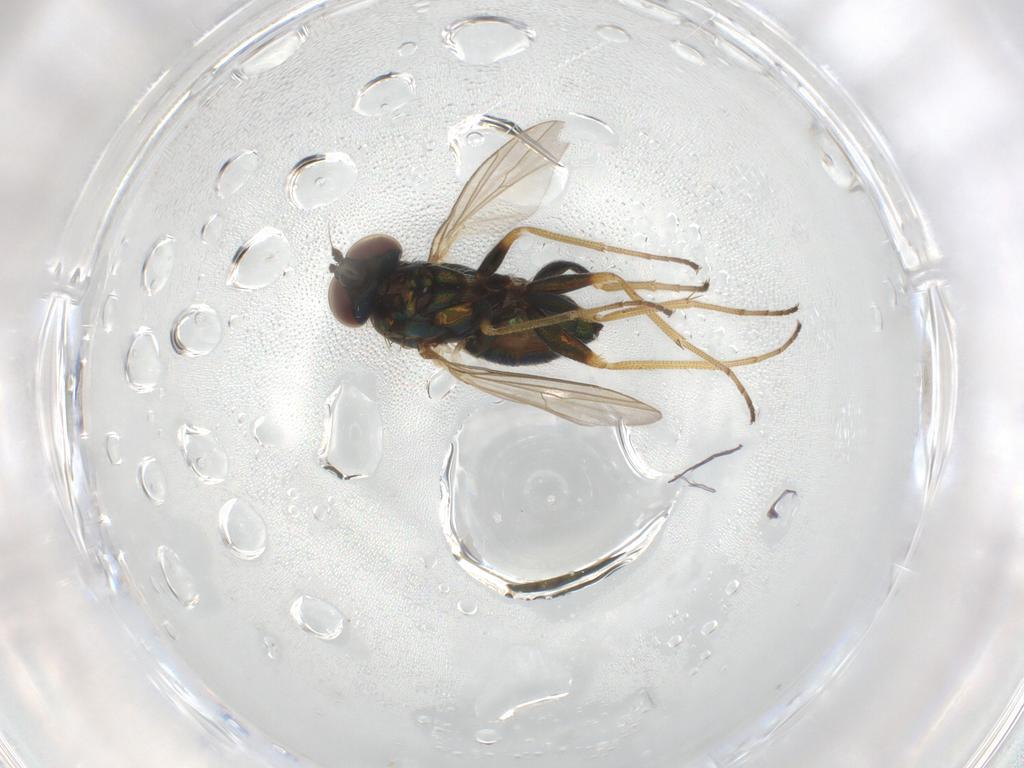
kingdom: Animalia
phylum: Arthropoda
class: Insecta
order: Diptera
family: Dolichopodidae
